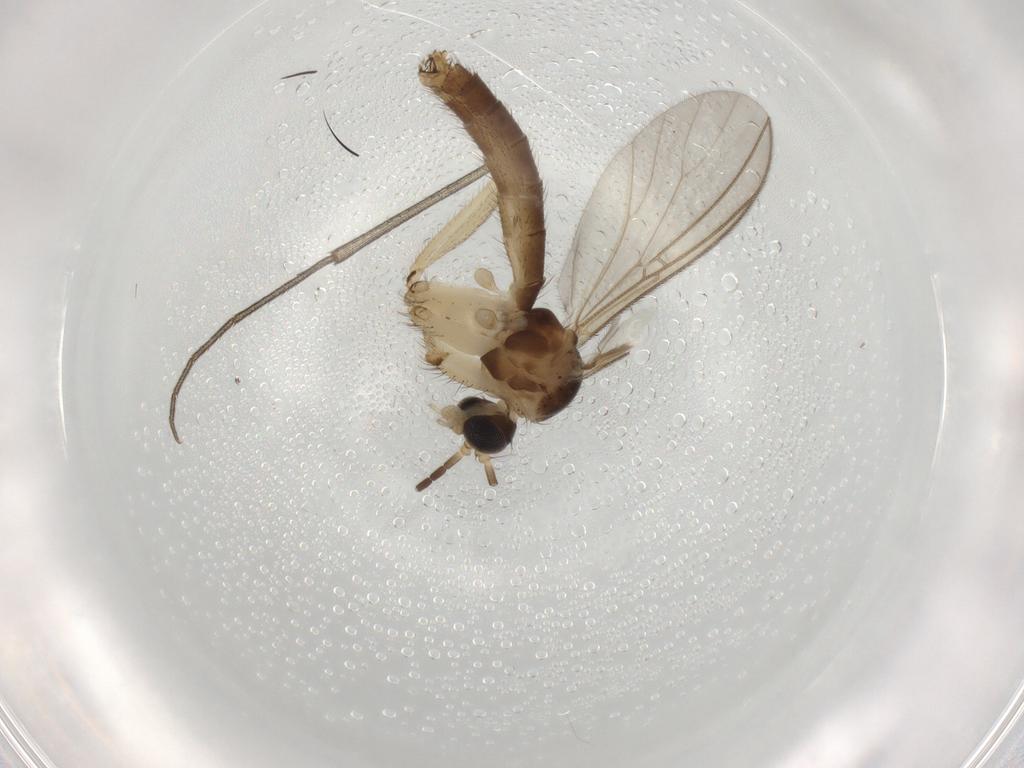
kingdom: Animalia
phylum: Arthropoda
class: Insecta
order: Diptera
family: Cecidomyiidae
